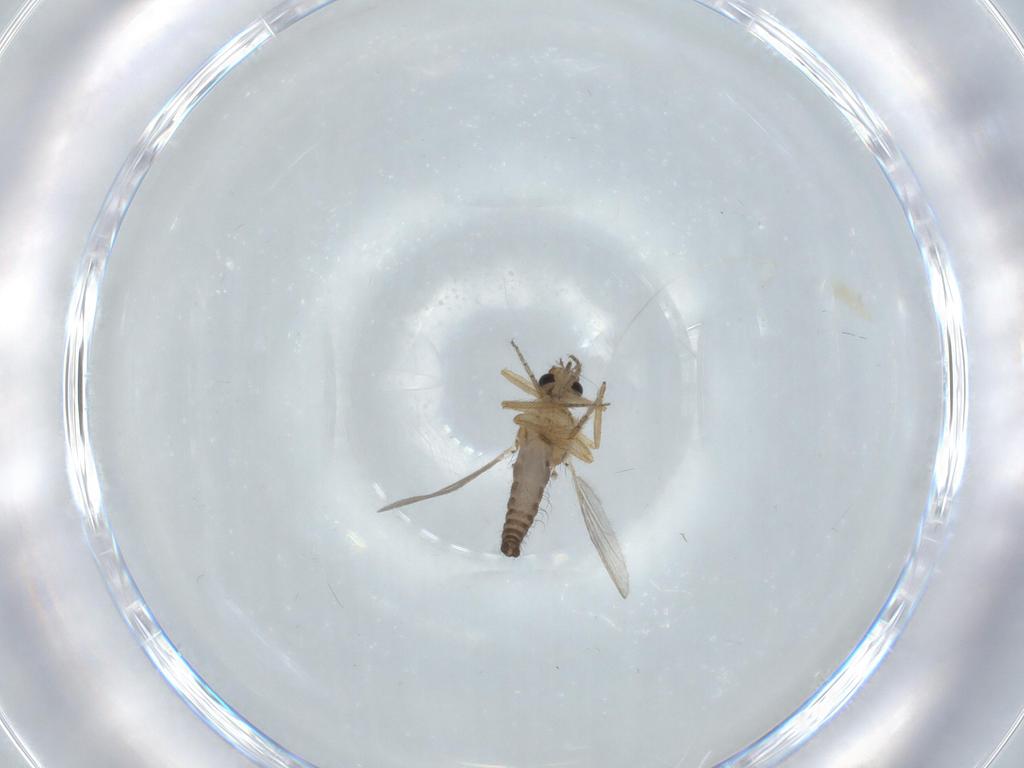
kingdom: Animalia
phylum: Arthropoda
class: Insecta
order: Diptera
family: Ceratopogonidae
